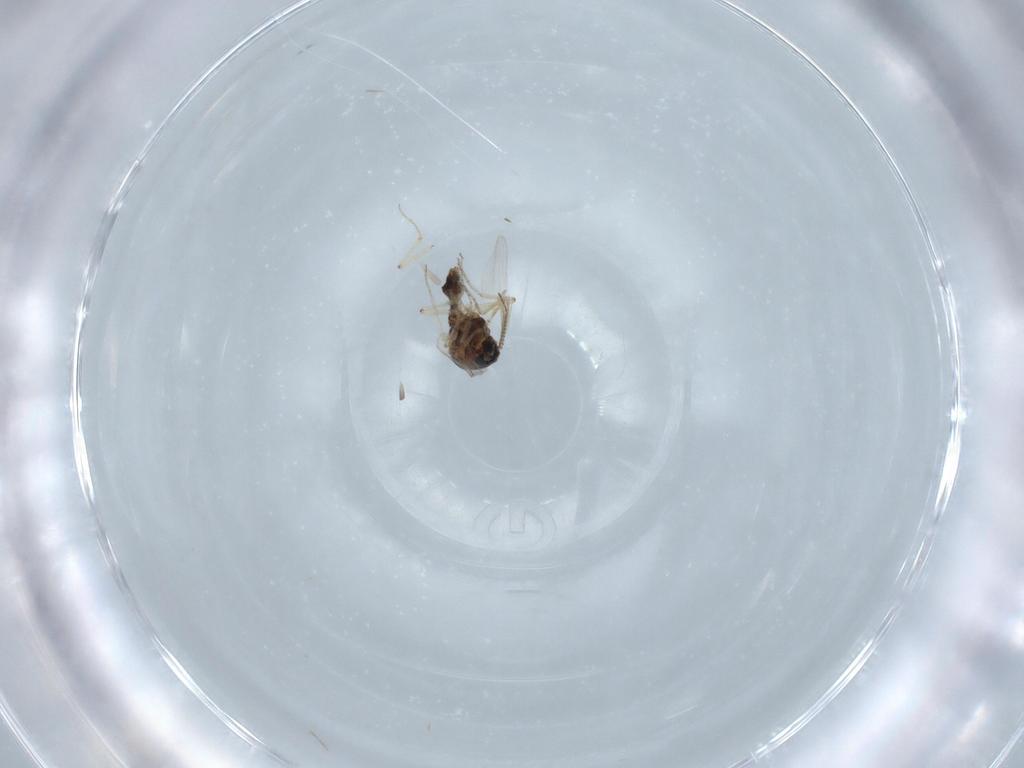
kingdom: Animalia
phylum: Arthropoda
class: Insecta
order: Diptera
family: Ceratopogonidae
